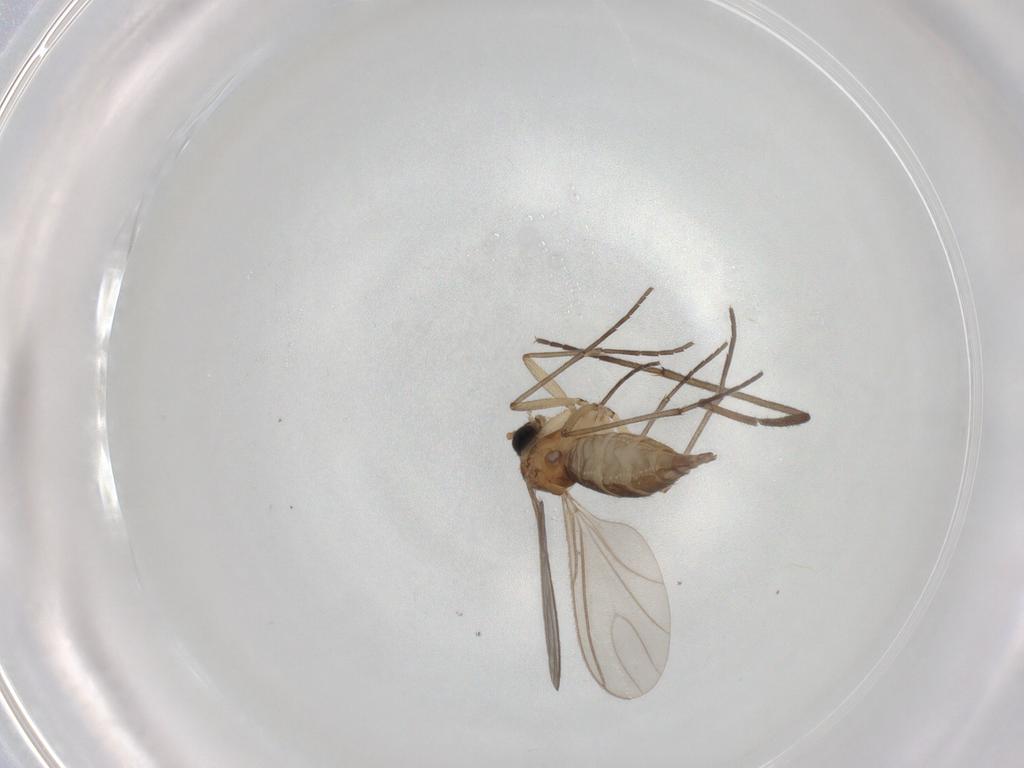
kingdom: Animalia
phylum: Arthropoda
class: Insecta
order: Diptera
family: Sciaridae
